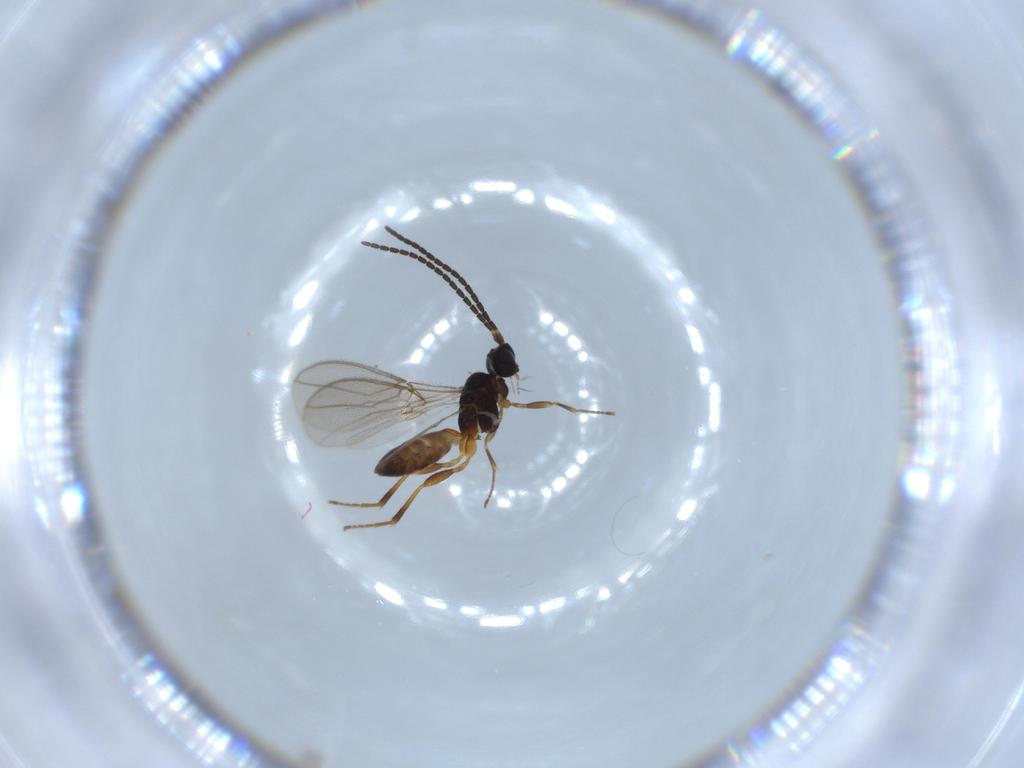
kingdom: Animalia
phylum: Arthropoda
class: Insecta
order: Hymenoptera
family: Braconidae
